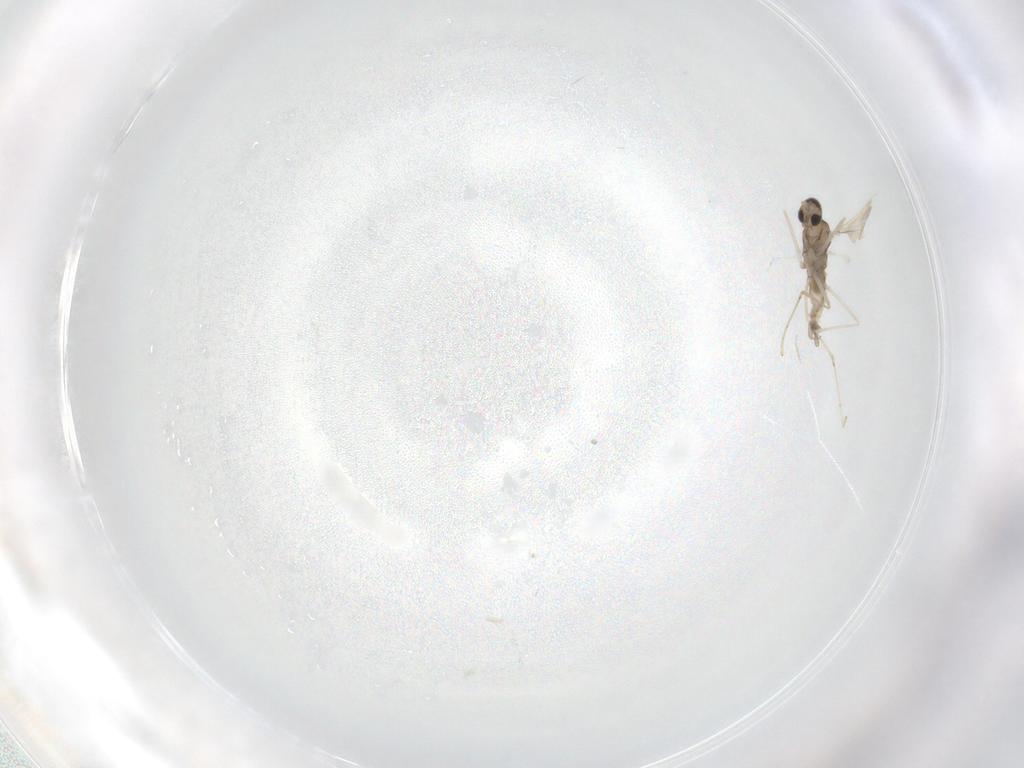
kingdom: Animalia
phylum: Arthropoda
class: Insecta
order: Diptera
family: Cecidomyiidae
